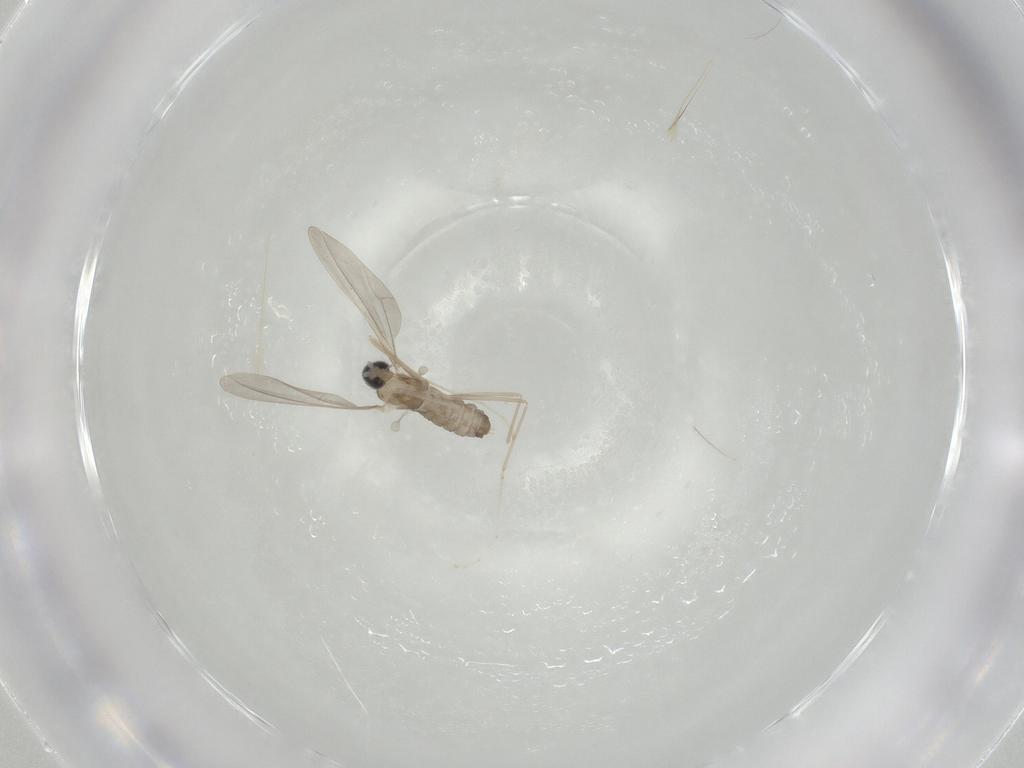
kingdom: Animalia
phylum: Arthropoda
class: Insecta
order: Diptera
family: Cecidomyiidae
